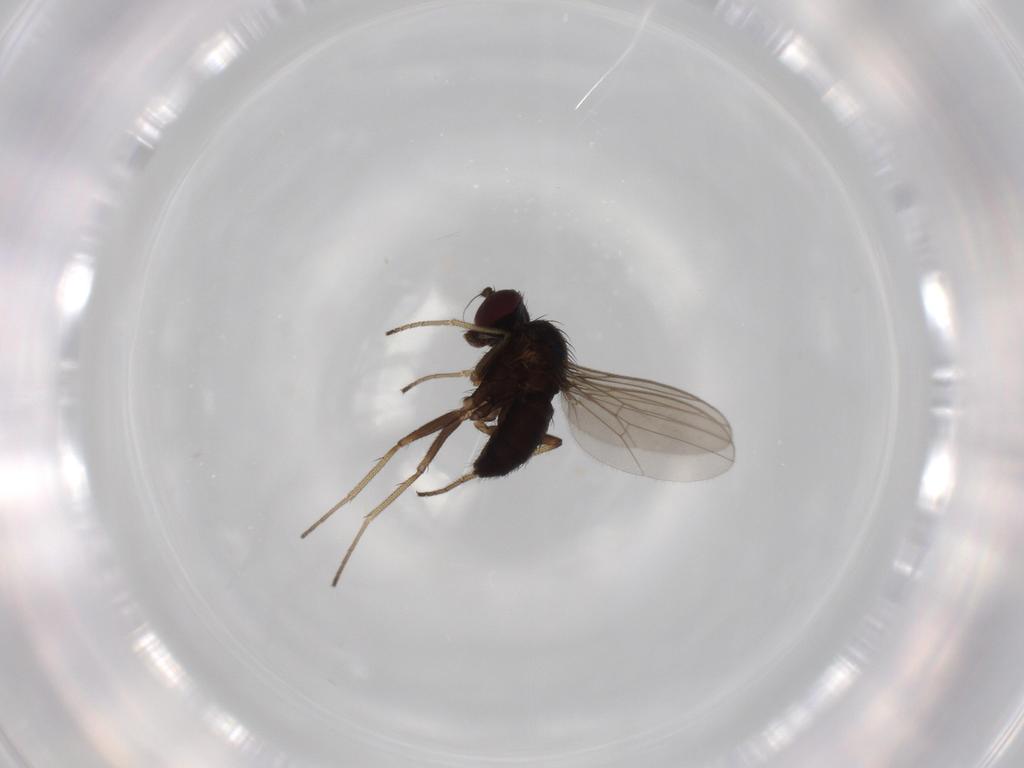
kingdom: Animalia
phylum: Arthropoda
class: Insecta
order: Diptera
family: Dolichopodidae
